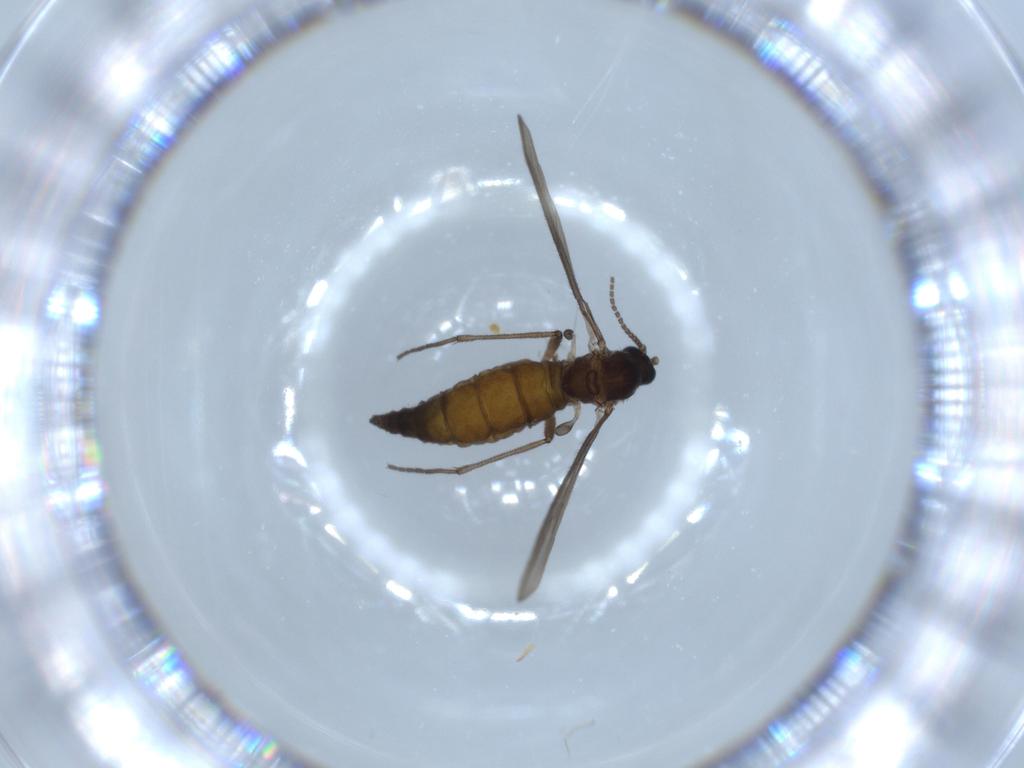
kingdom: Animalia
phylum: Arthropoda
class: Insecta
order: Diptera
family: Sciaridae
